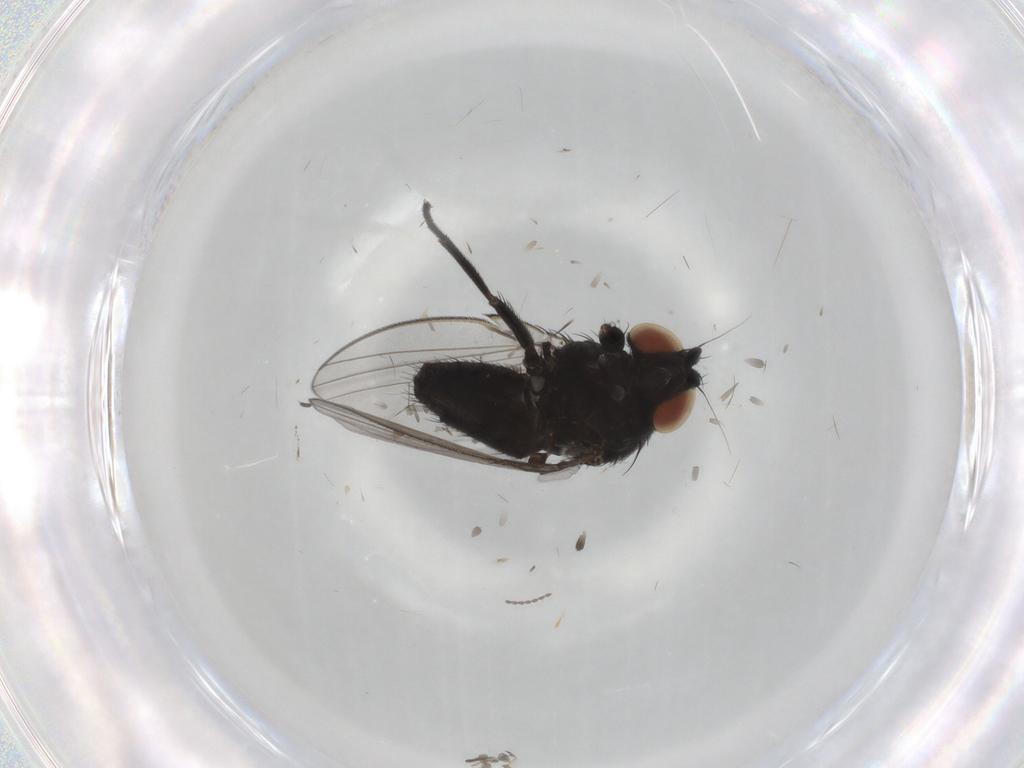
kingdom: Animalia
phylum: Arthropoda
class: Insecta
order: Diptera
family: Milichiidae
